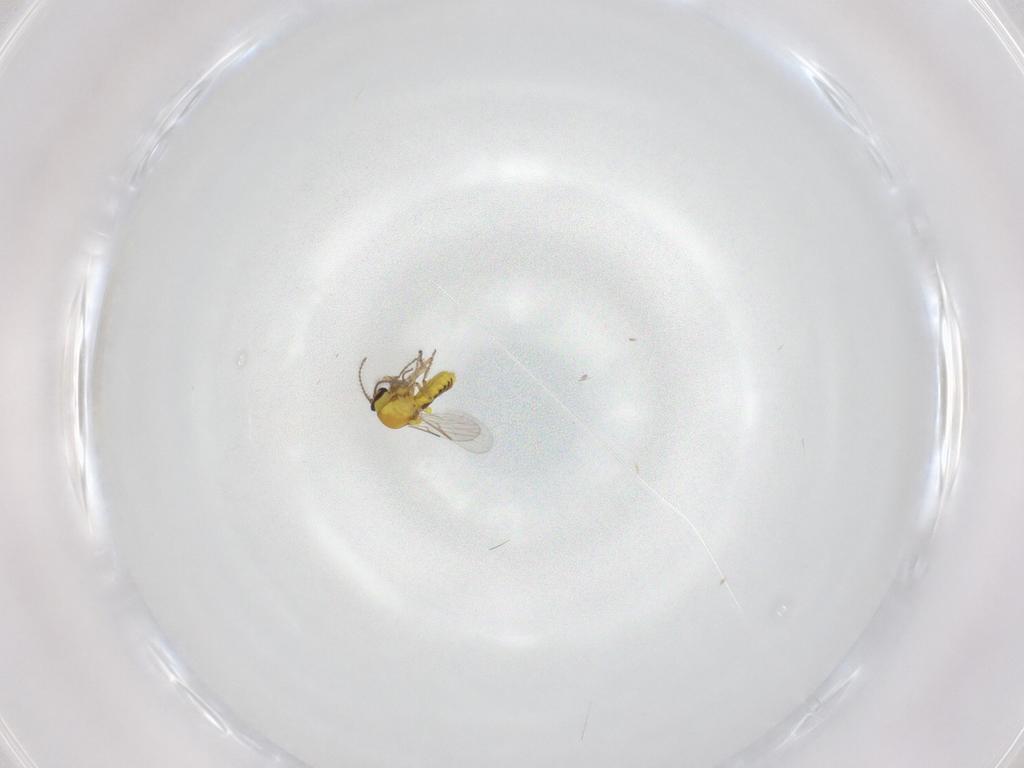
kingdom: Animalia
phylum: Arthropoda
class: Insecta
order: Diptera
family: Ceratopogonidae
